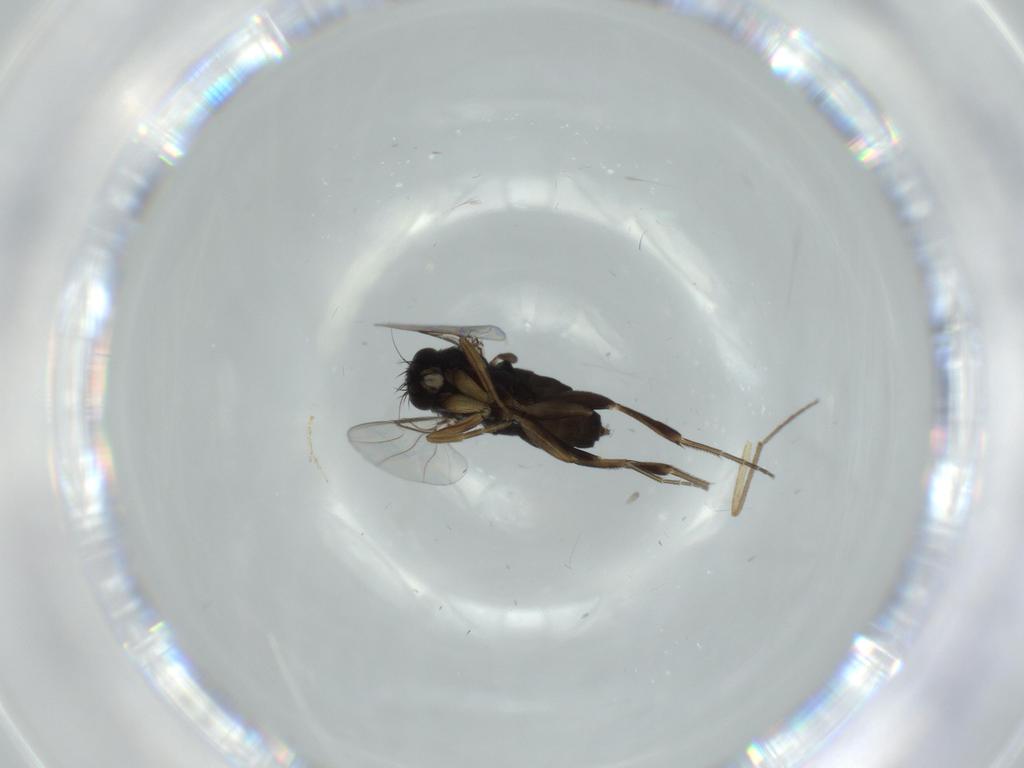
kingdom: Animalia
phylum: Arthropoda
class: Insecta
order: Diptera
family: Phoridae
